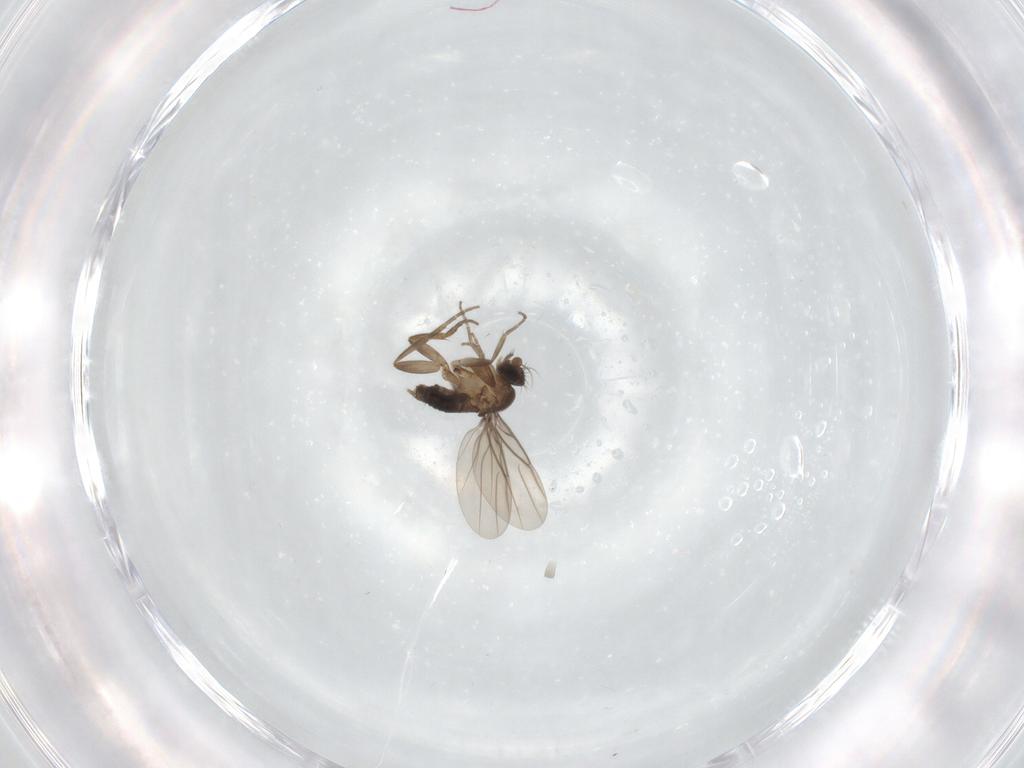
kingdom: Animalia
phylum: Arthropoda
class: Insecta
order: Diptera
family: Phoridae
